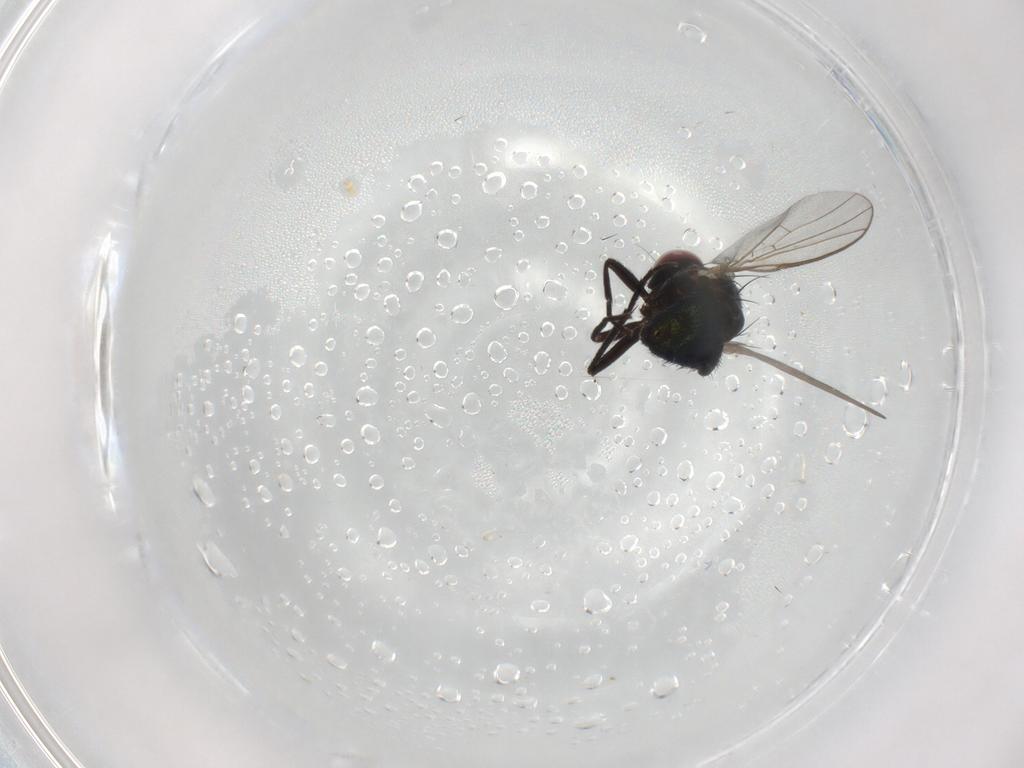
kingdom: Animalia
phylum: Arthropoda
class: Insecta
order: Diptera
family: Agromyzidae
